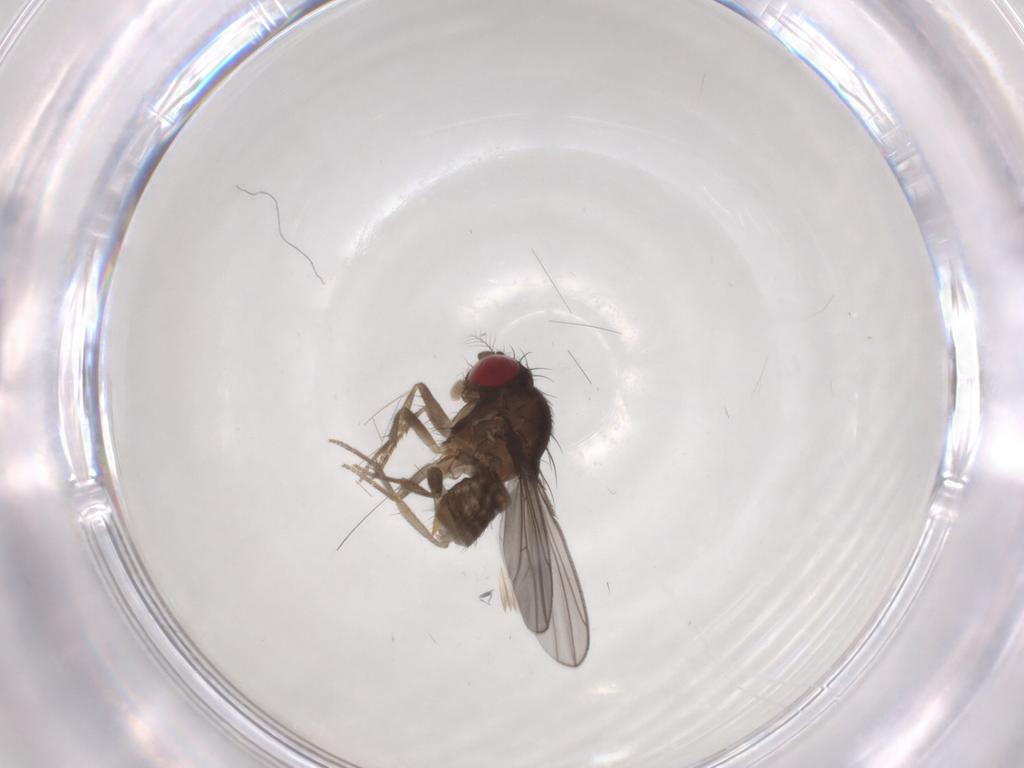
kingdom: Animalia
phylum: Arthropoda
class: Insecta
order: Diptera
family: Drosophilidae
